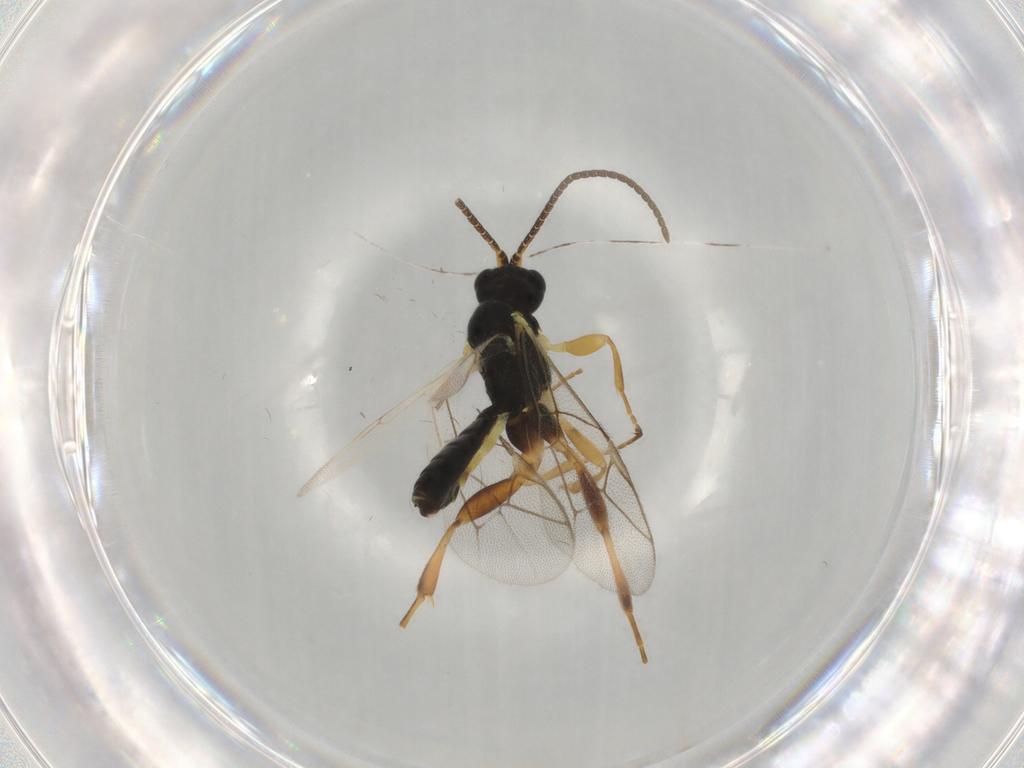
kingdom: Animalia
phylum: Arthropoda
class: Insecta
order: Hymenoptera
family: Ichneumonidae
